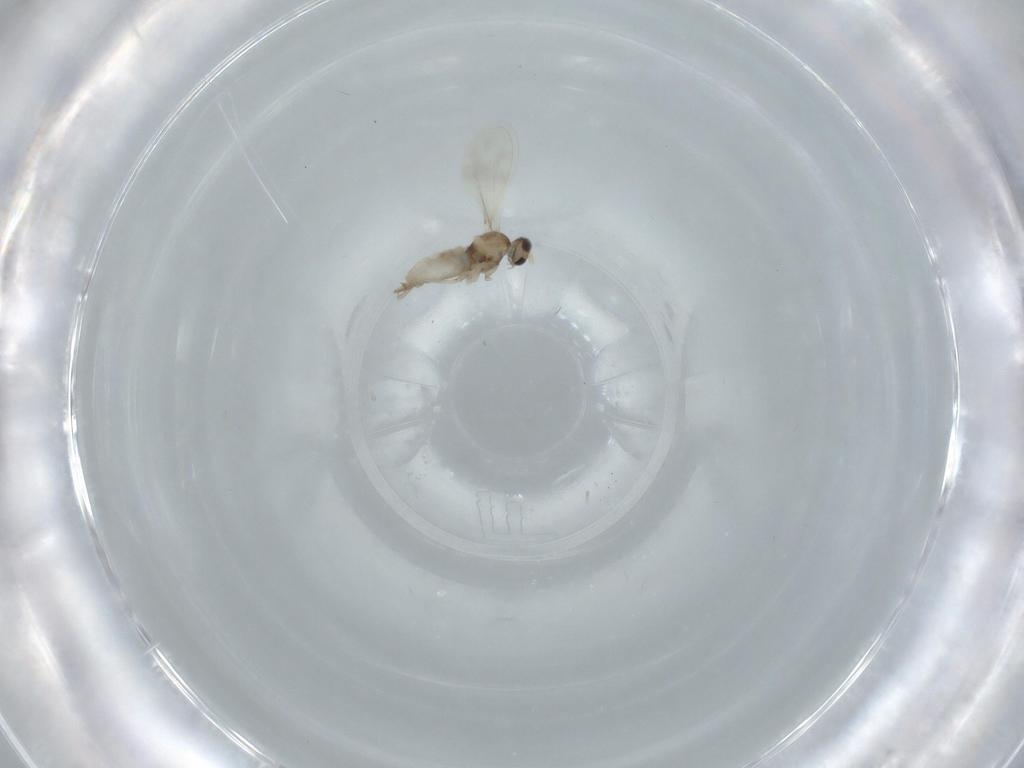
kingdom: Animalia
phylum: Arthropoda
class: Insecta
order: Diptera
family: Cecidomyiidae
